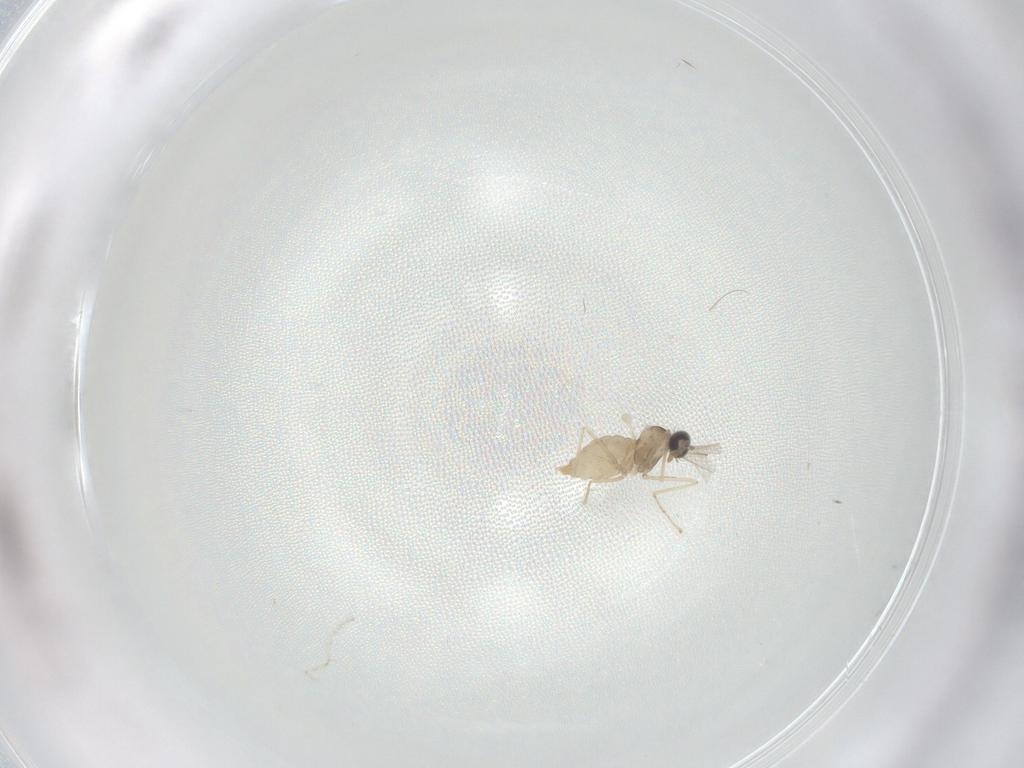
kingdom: Animalia
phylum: Arthropoda
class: Insecta
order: Diptera
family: Cecidomyiidae
